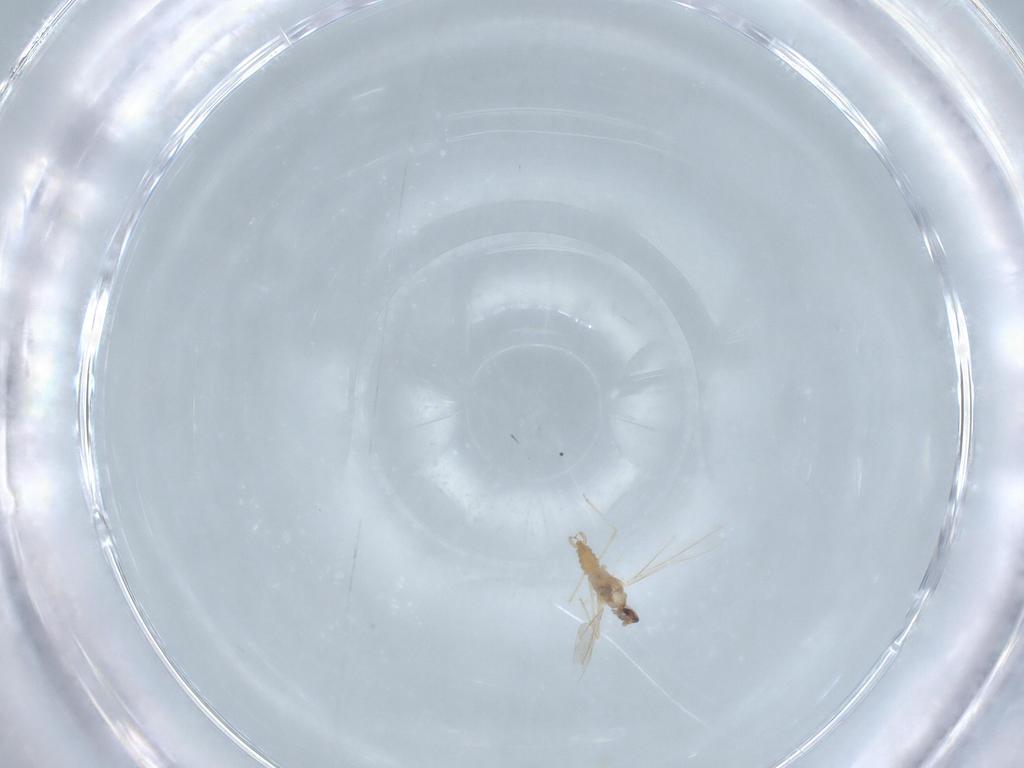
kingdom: Animalia
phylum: Arthropoda
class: Insecta
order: Diptera
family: Cecidomyiidae
